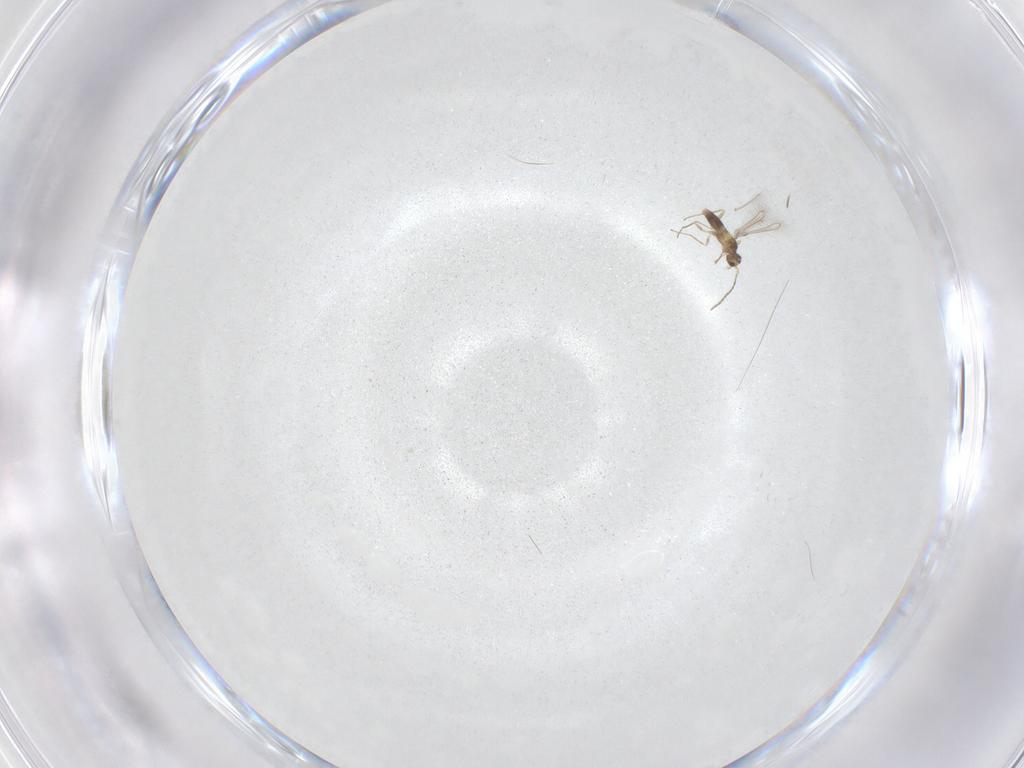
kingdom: Animalia
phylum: Arthropoda
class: Insecta
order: Hymenoptera
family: Mymaridae
